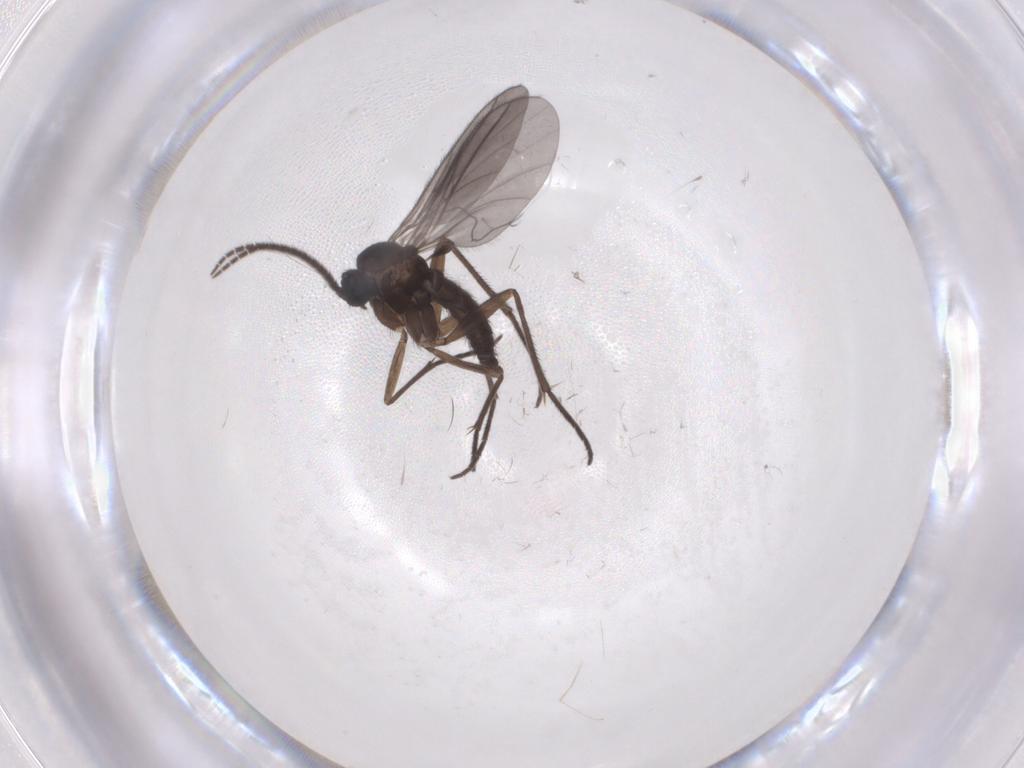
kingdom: Animalia
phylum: Arthropoda
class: Insecta
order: Diptera
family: Sciaridae
